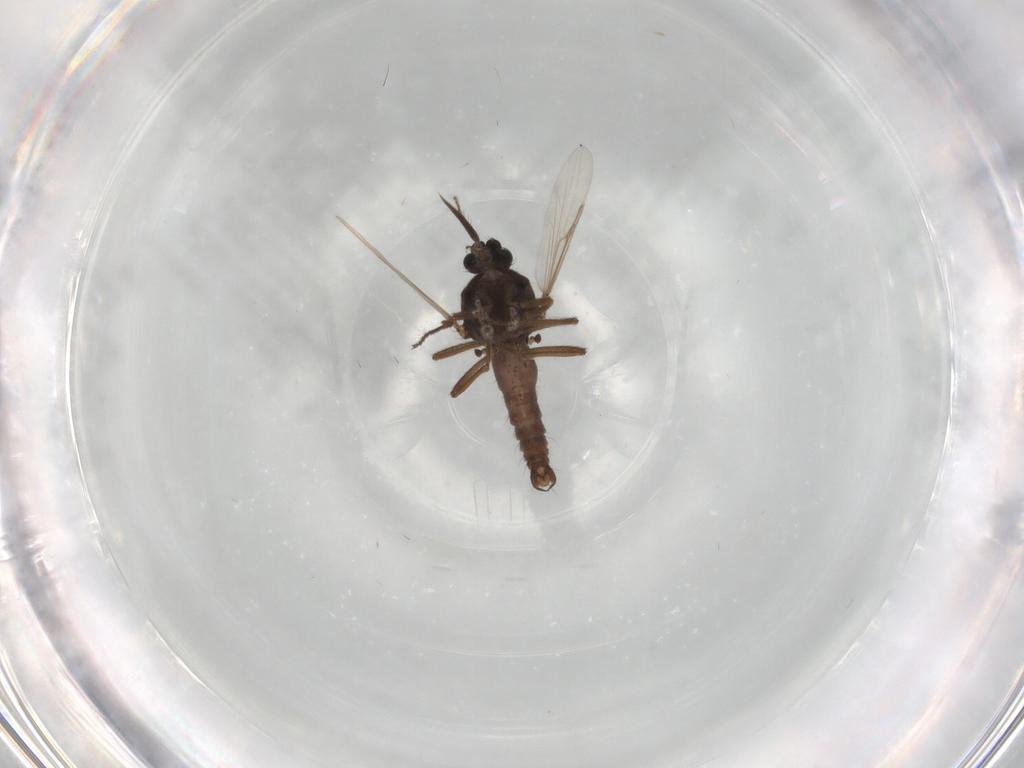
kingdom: Animalia
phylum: Arthropoda
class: Insecta
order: Diptera
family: Ceratopogonidae
